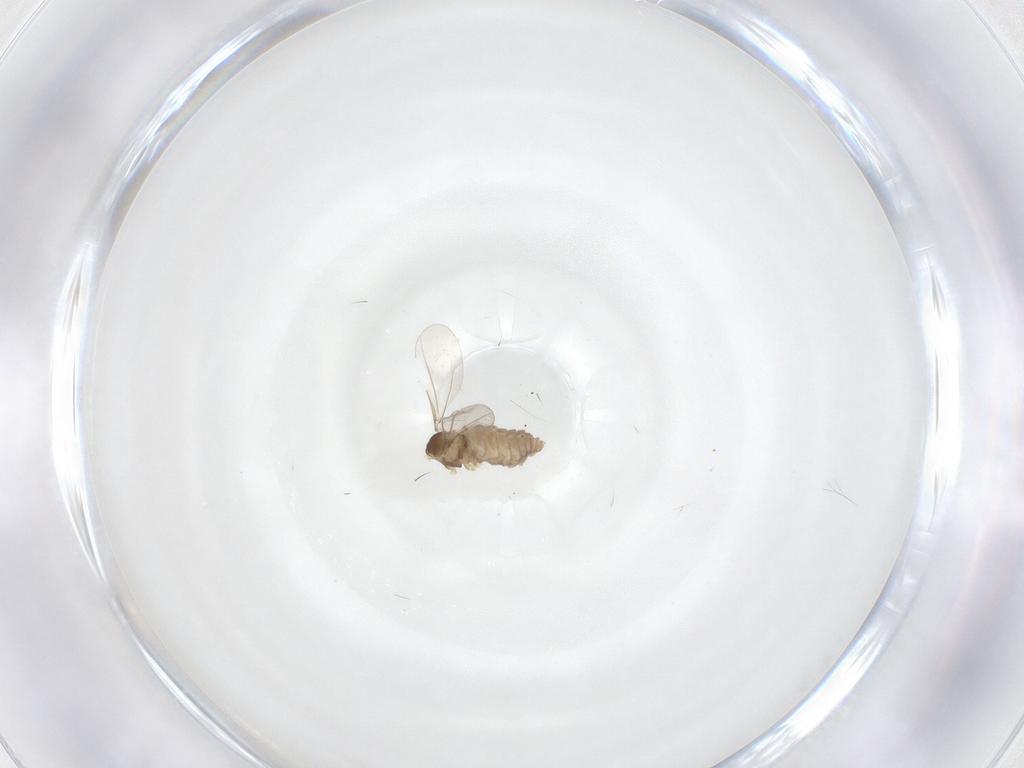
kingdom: Animalia
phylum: Arthropoda
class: Insecta
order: Diptera
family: Cecidomyiidae
